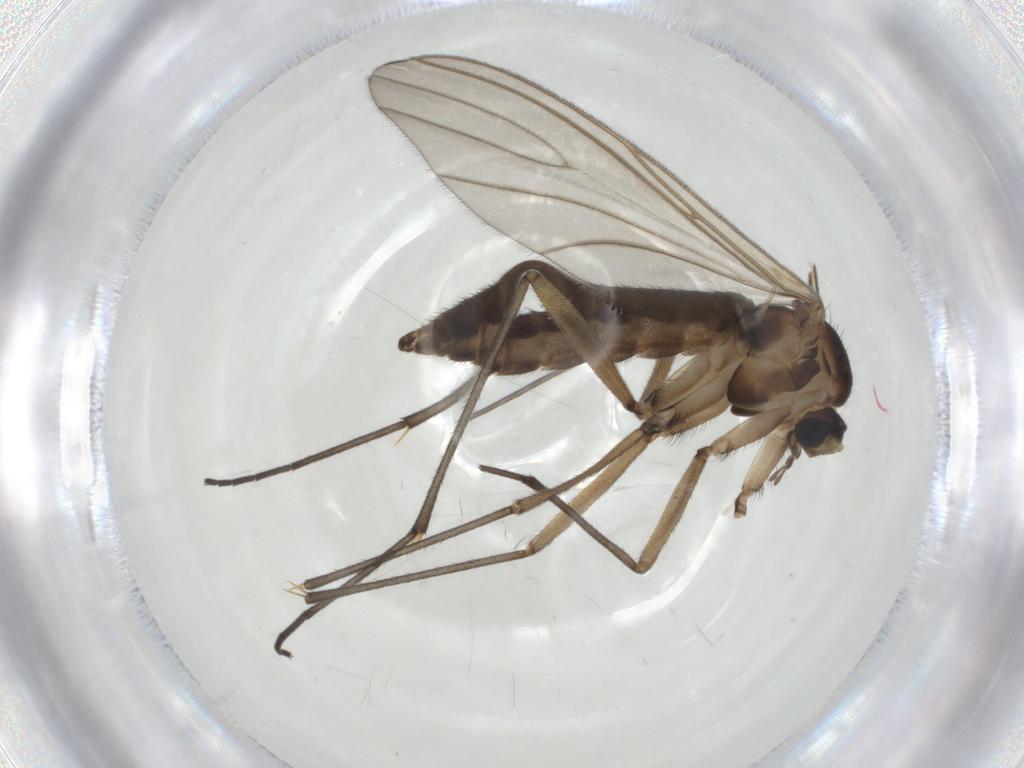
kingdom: Animalia
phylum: Arthropoda
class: Insecta
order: Diptera
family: Sciaridae
